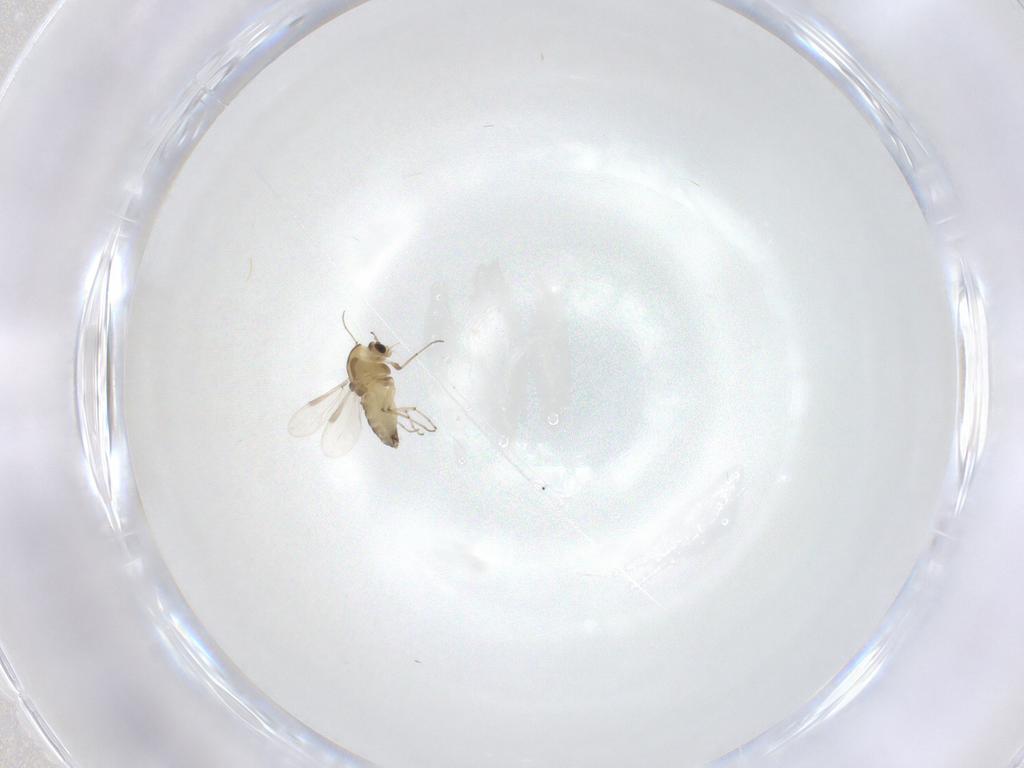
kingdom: Animalia
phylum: Arthropoda
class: Insecta
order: Diptera
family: Chironomidae
